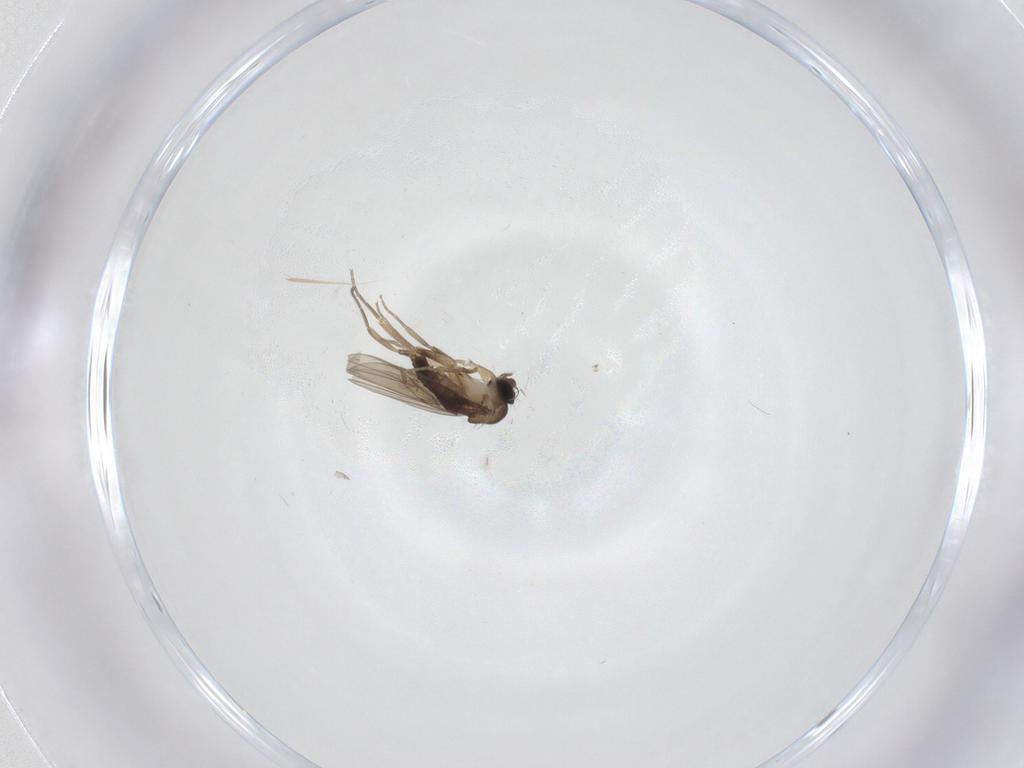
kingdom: Animalia
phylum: Arthropoda
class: Insecta
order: Diptera
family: Phoridae
